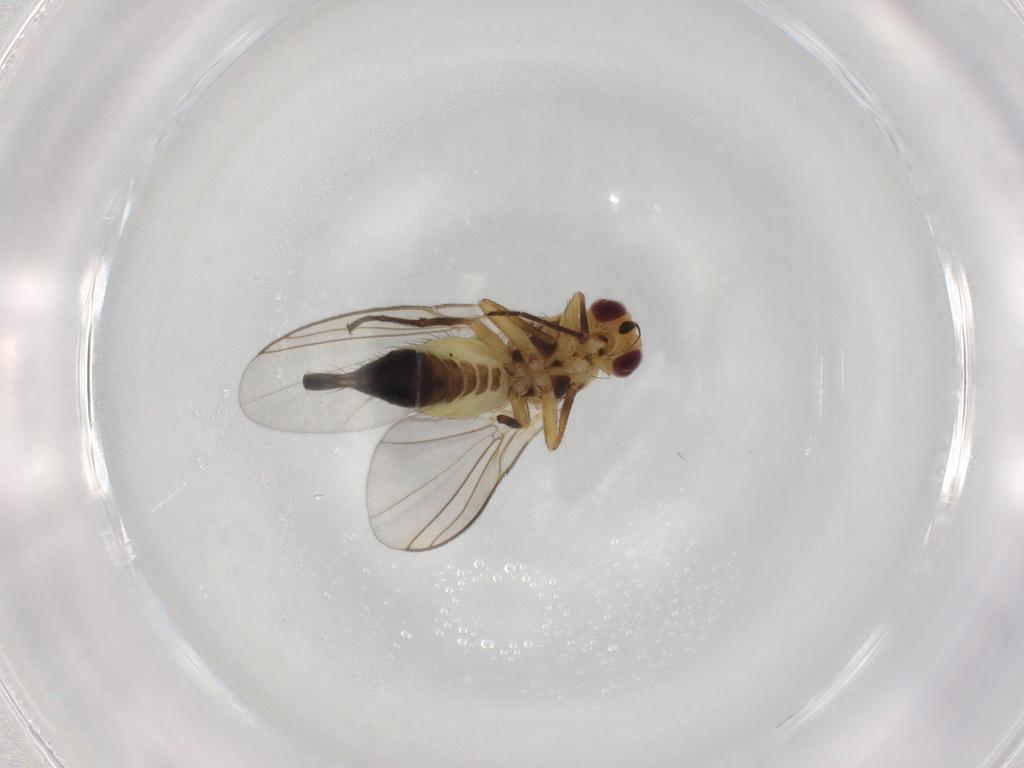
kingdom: Animalia
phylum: Arthropoda
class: Insecta
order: Diptera
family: Agromyzidae
